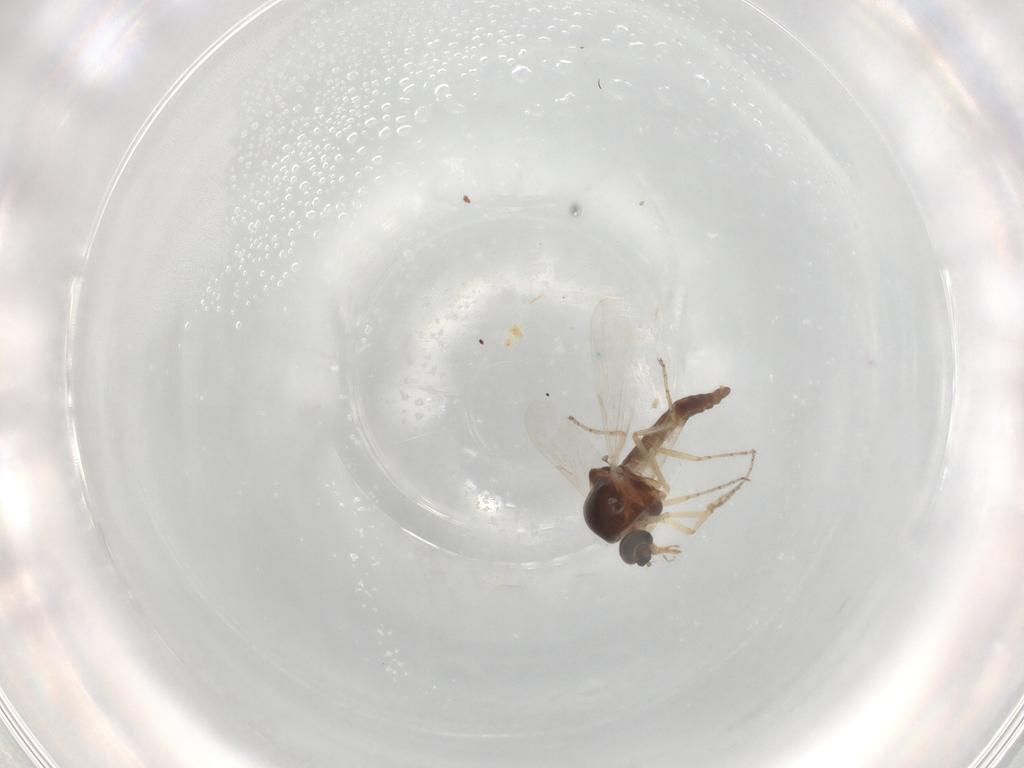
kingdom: Animalia
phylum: Arthropoda
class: Insecta
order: Diptera
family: Ceratopogonidae
